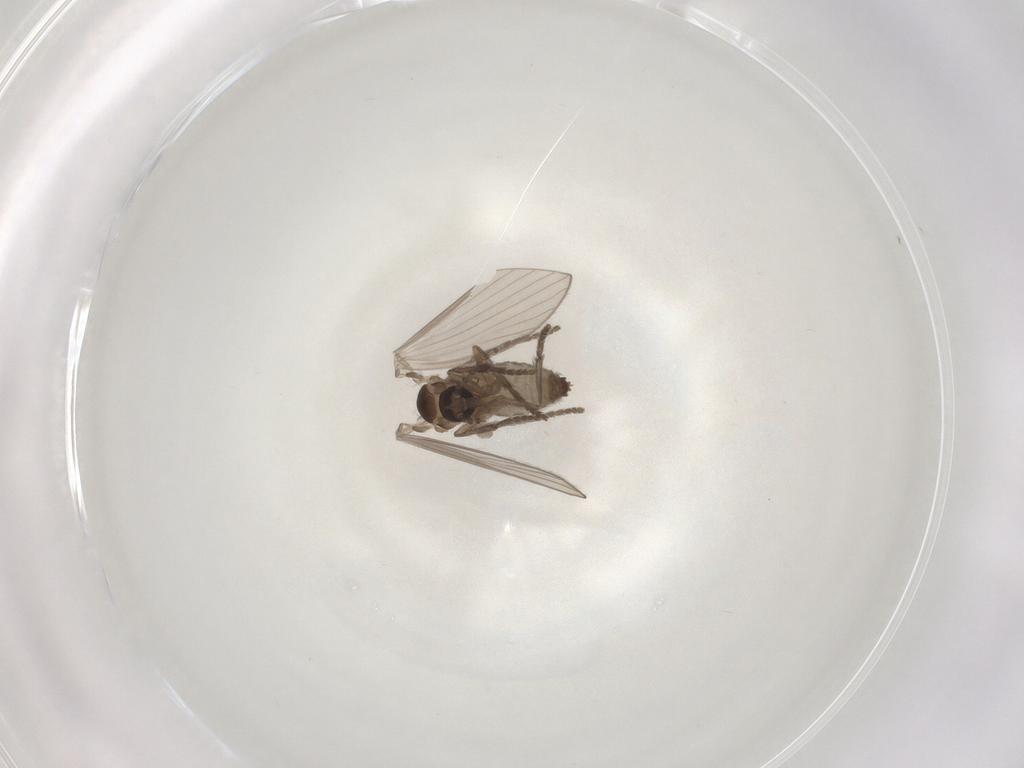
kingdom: Animalia
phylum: Arthropoda
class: Insecta
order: Diptera
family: Psychodidae
